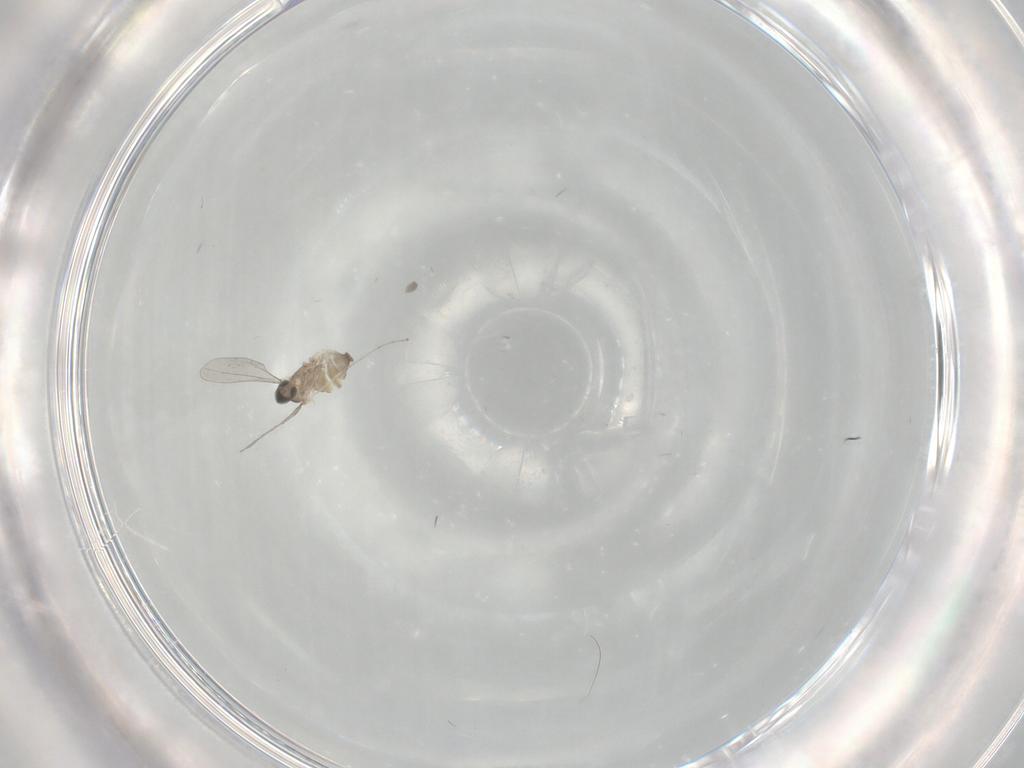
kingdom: Animalia
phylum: Arthropoda
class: Insecta
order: Diptera
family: Cecidomyiidae
